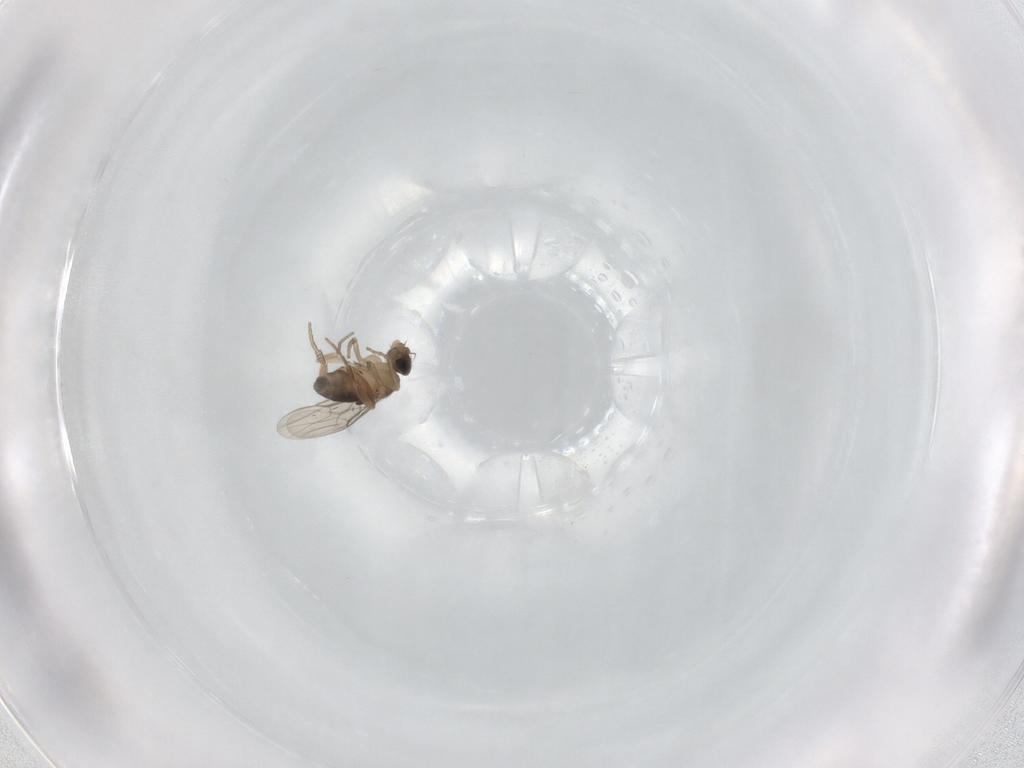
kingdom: Animalia
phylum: Arthropoda
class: Insecta
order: Diptera
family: Phoridae
